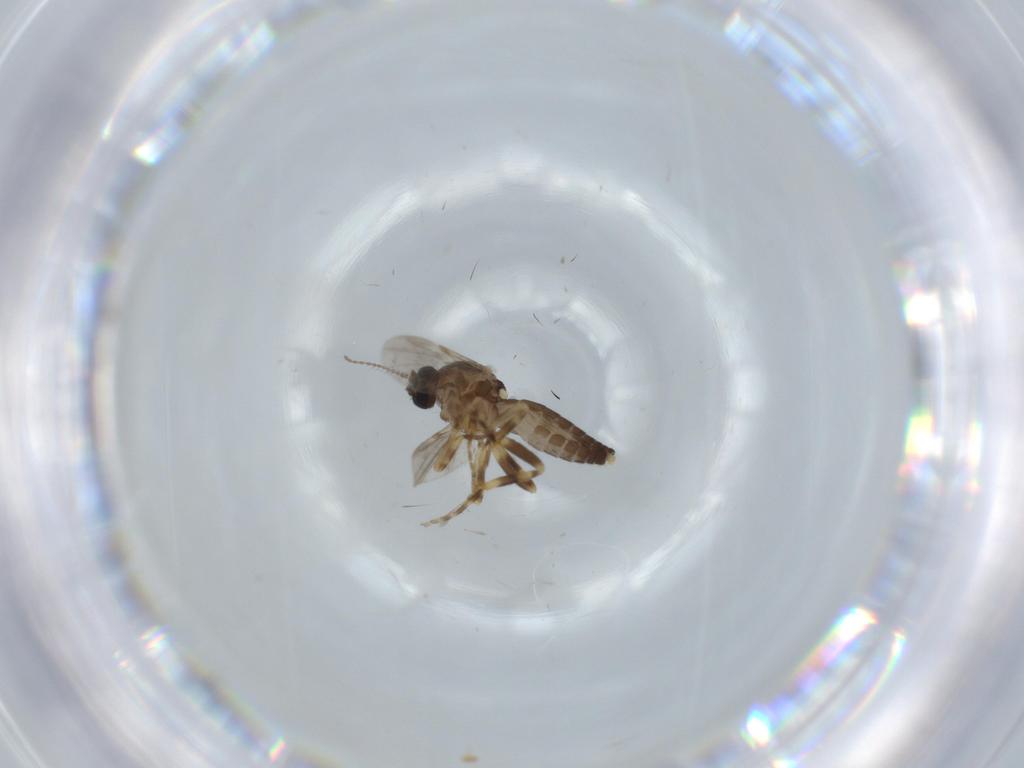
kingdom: Animalia
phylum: Arthropoda
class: Insecta
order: Diptera
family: Ceratopogonidae
